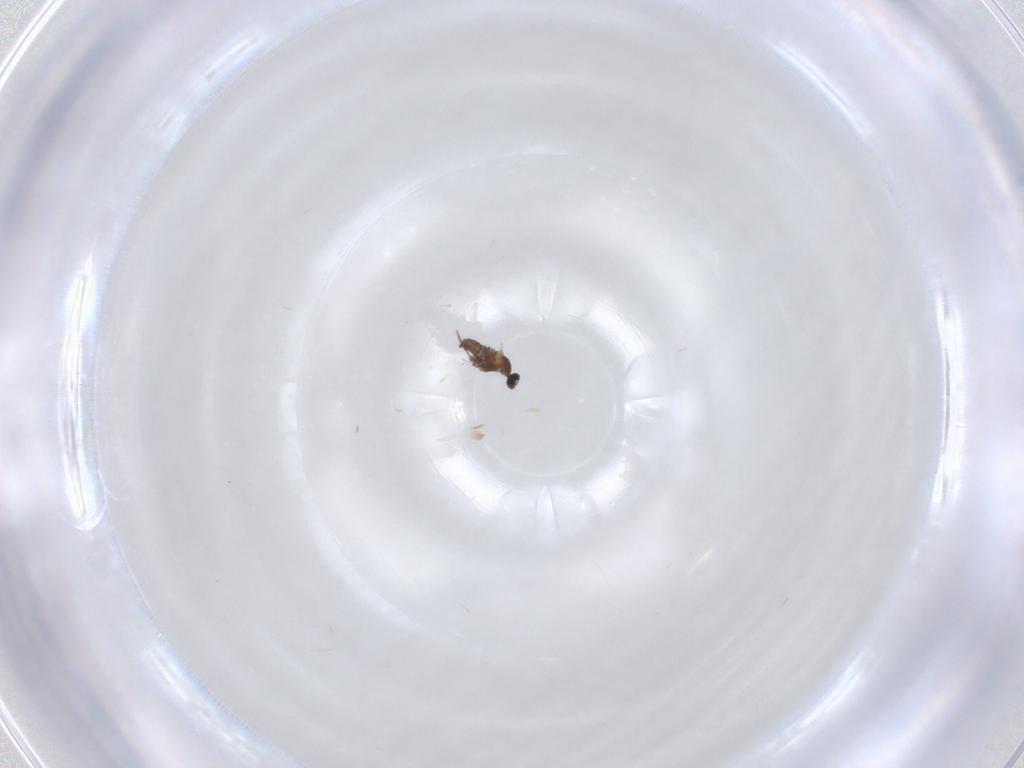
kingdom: Animalia
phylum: Arthropoda
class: Insecta
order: Diptera
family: Cecidomyiidae
